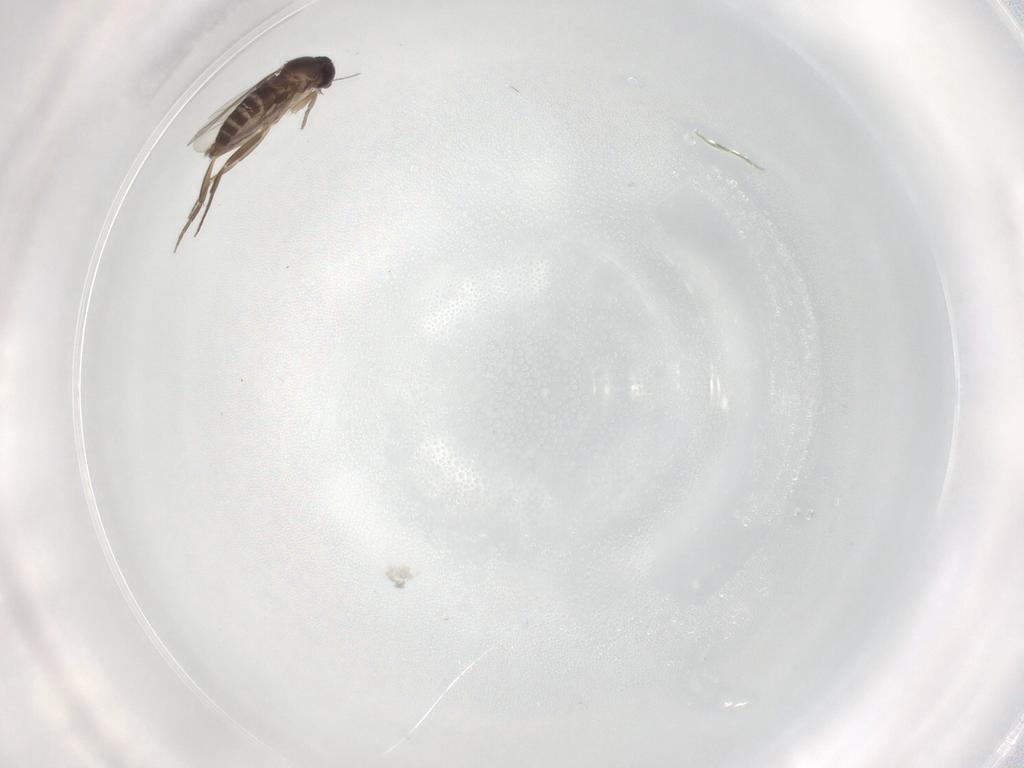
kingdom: Animalia
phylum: Arthropoda
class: Insecta
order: Diptera
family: Phoridae
